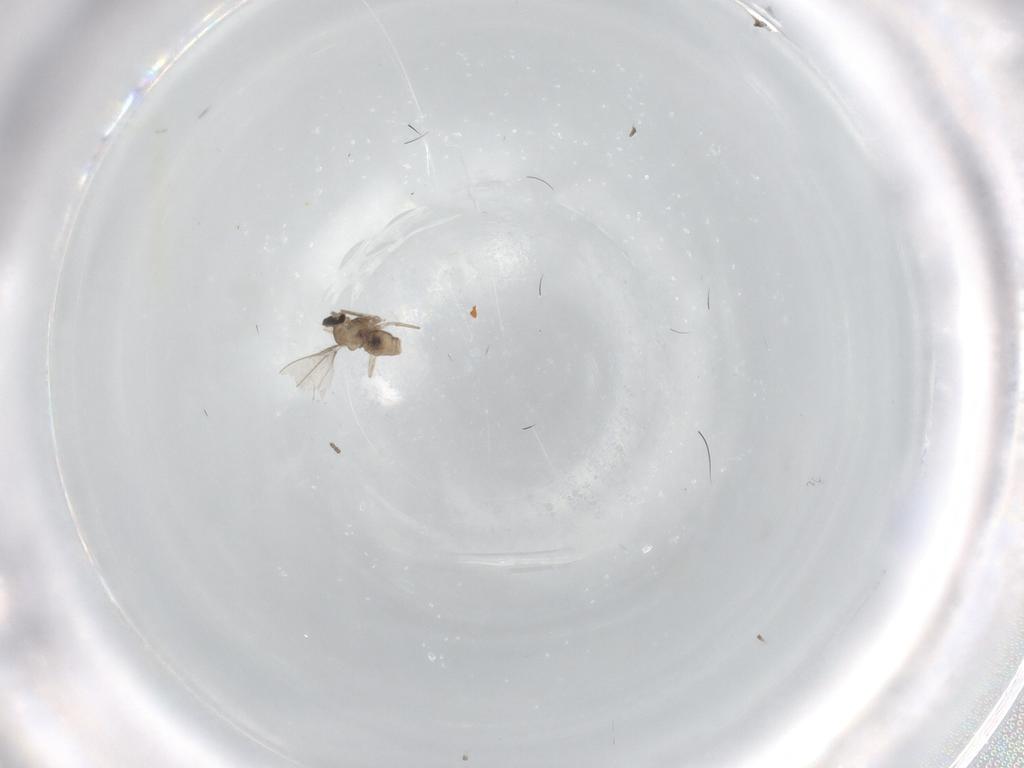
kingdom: Animalia
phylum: Arthropoda
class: Insecta
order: Diptera
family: Cecidomyiidae
